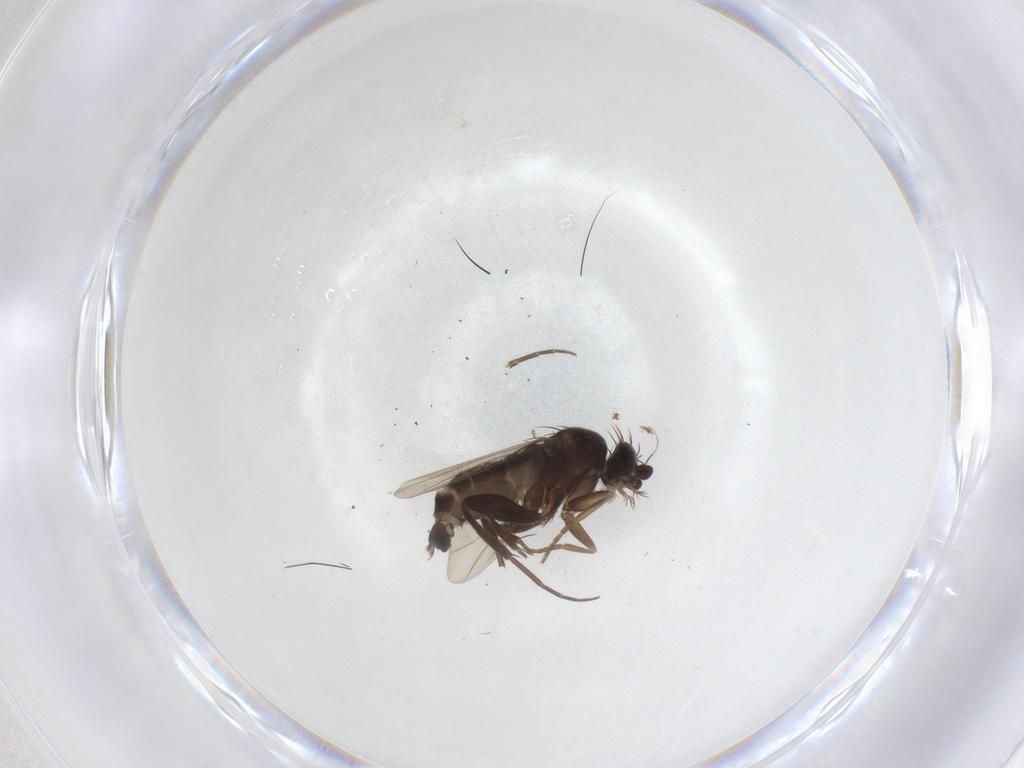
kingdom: Animalia
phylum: Arthropoda
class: Insecta
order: Diptera
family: Phoridae
